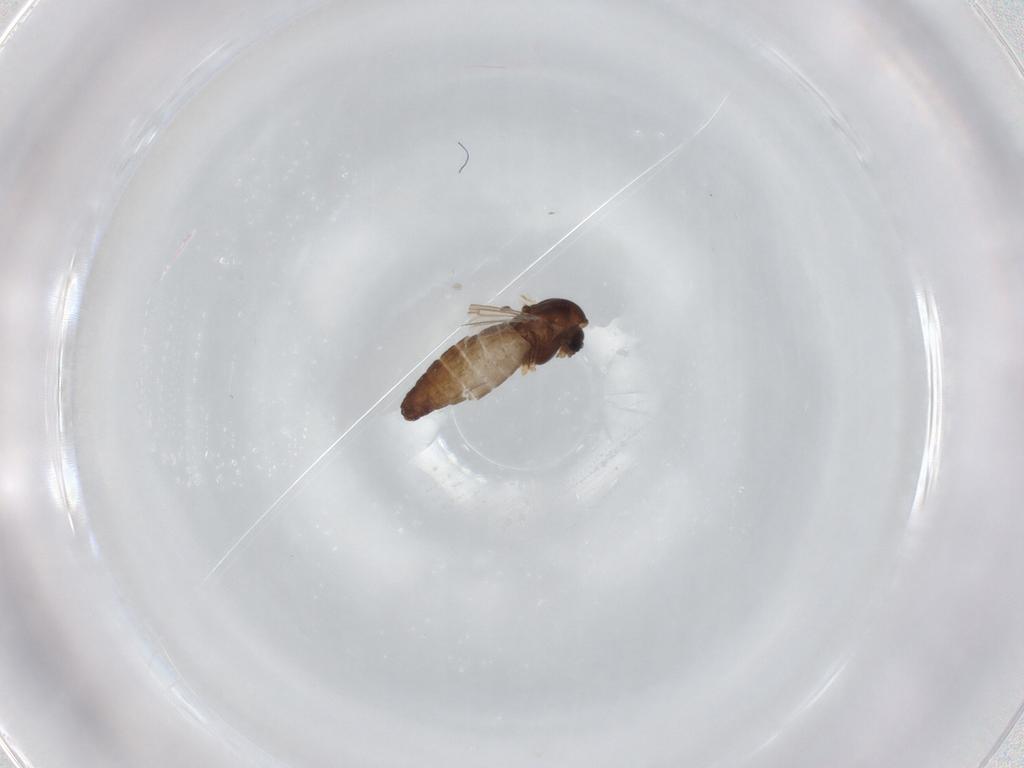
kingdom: Animalia
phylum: Arthropoda
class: Insecta
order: Diptera
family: Chironomidae
